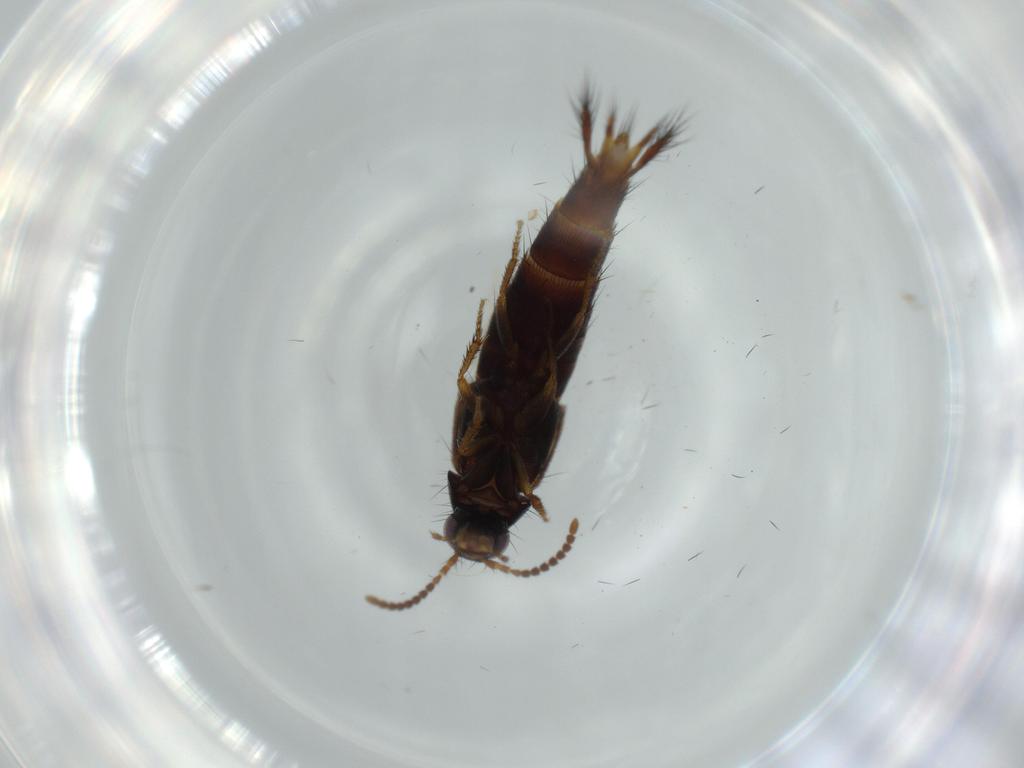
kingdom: Animalia
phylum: Arthropoda
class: Insecta
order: Coleoptera
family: Staphylinidae
